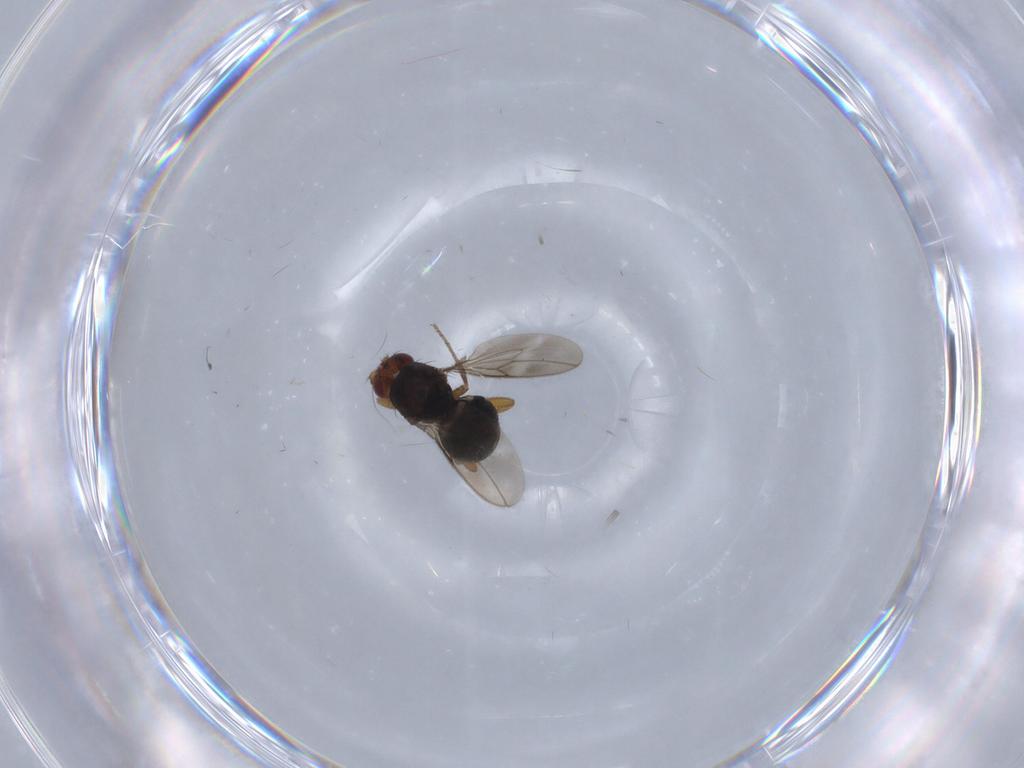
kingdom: Animalia
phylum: Arthropoda
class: Insecta
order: Diptera
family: Sphaeroceridae
